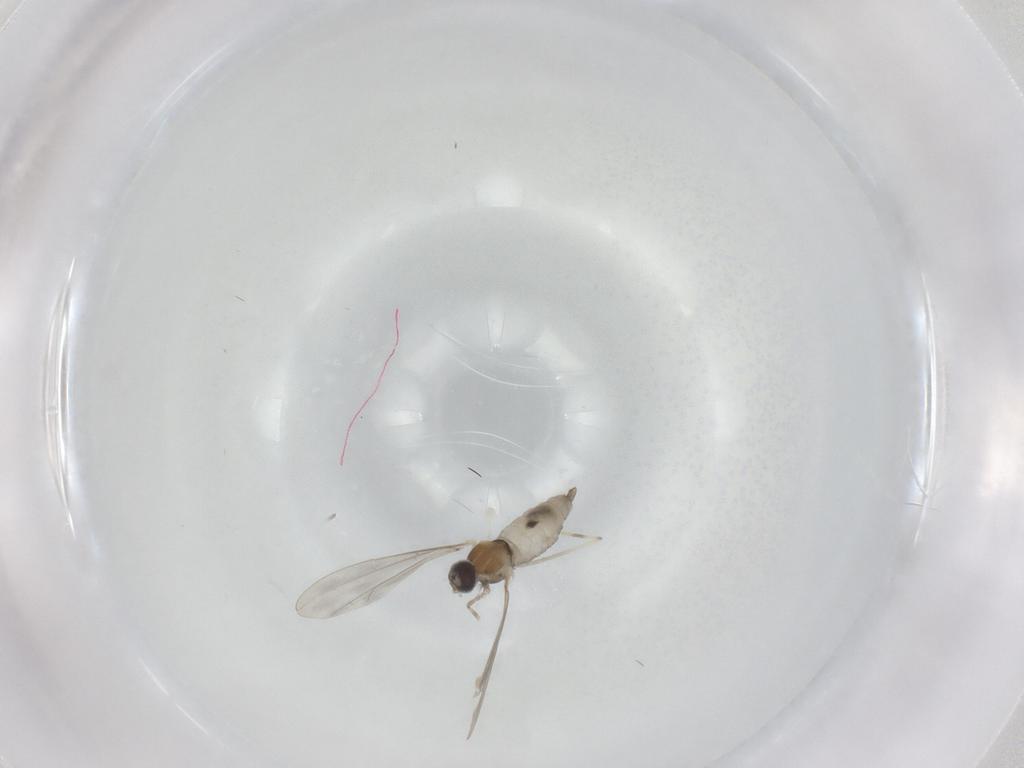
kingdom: Animalia
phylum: Arthropoda
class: Insecta
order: Diptera
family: Cecidomyiidae
